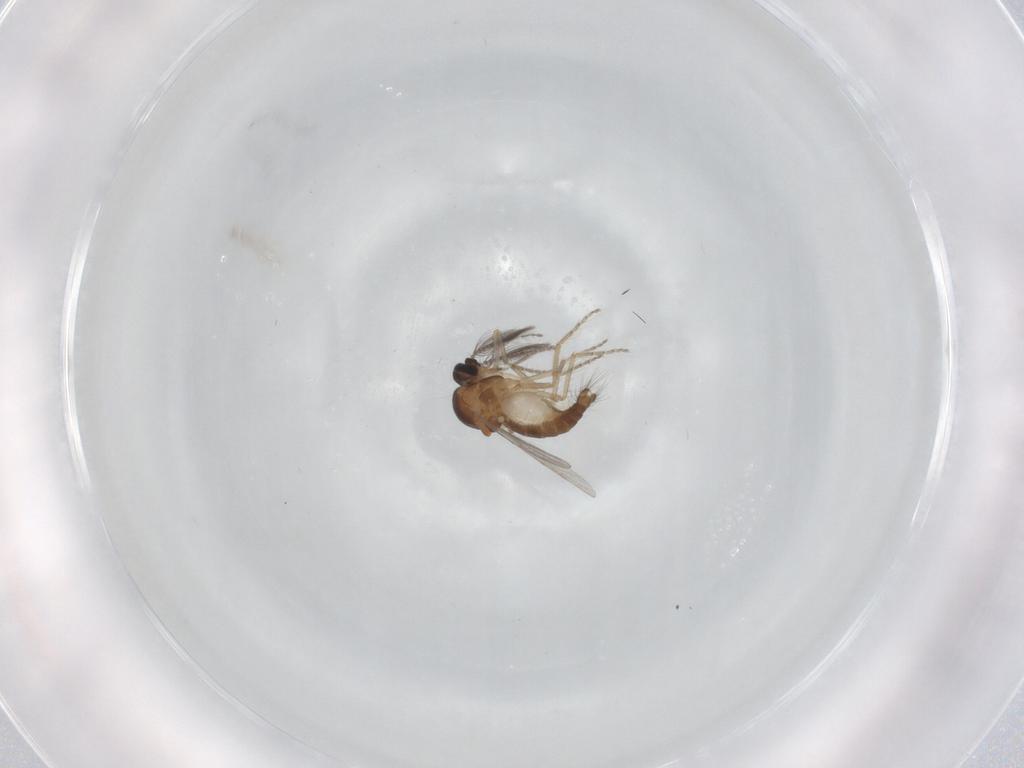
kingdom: Animalia
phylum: Arthropoda
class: Insecta
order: Diptera
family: Ceratopogonidae
